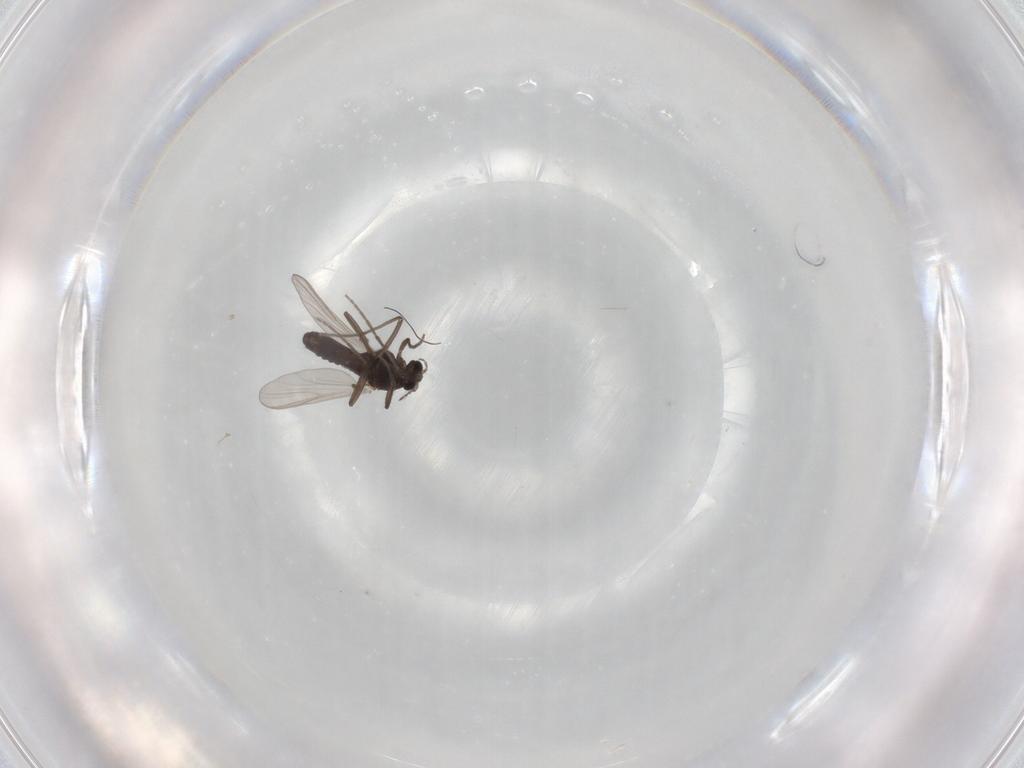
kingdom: Animalia
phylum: Arthropoda
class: Insecta
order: Diptera
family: Chironomidae
